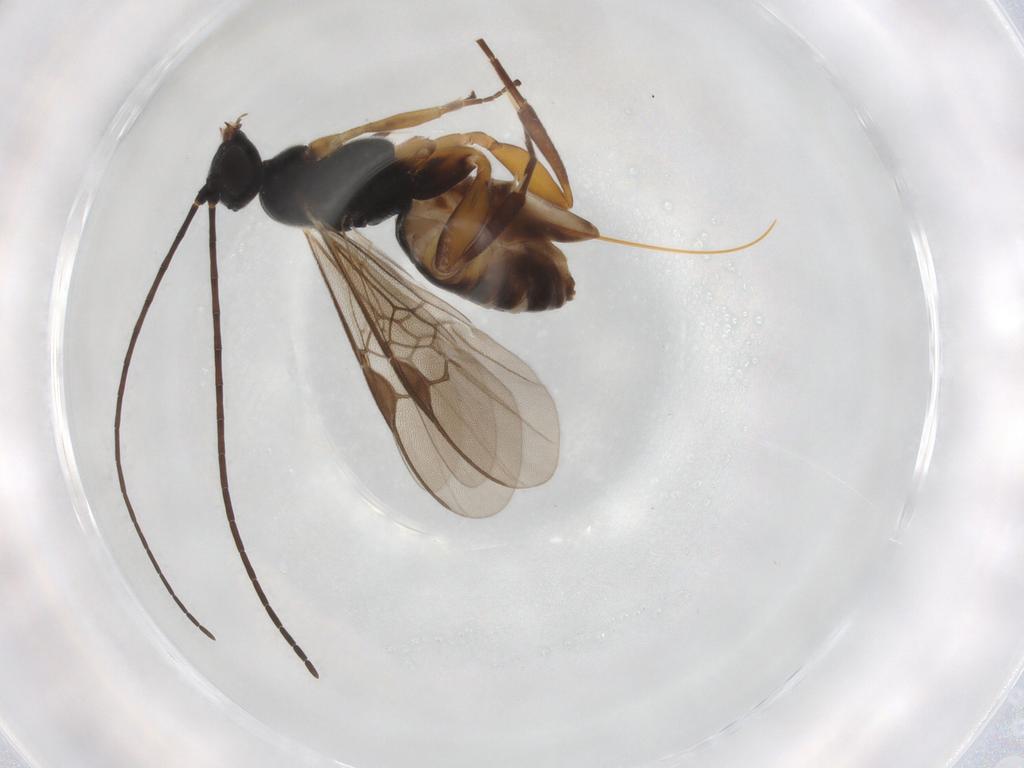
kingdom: Animalia
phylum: Arthropoda
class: Insecta
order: Hymenoptera
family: Braconidae
